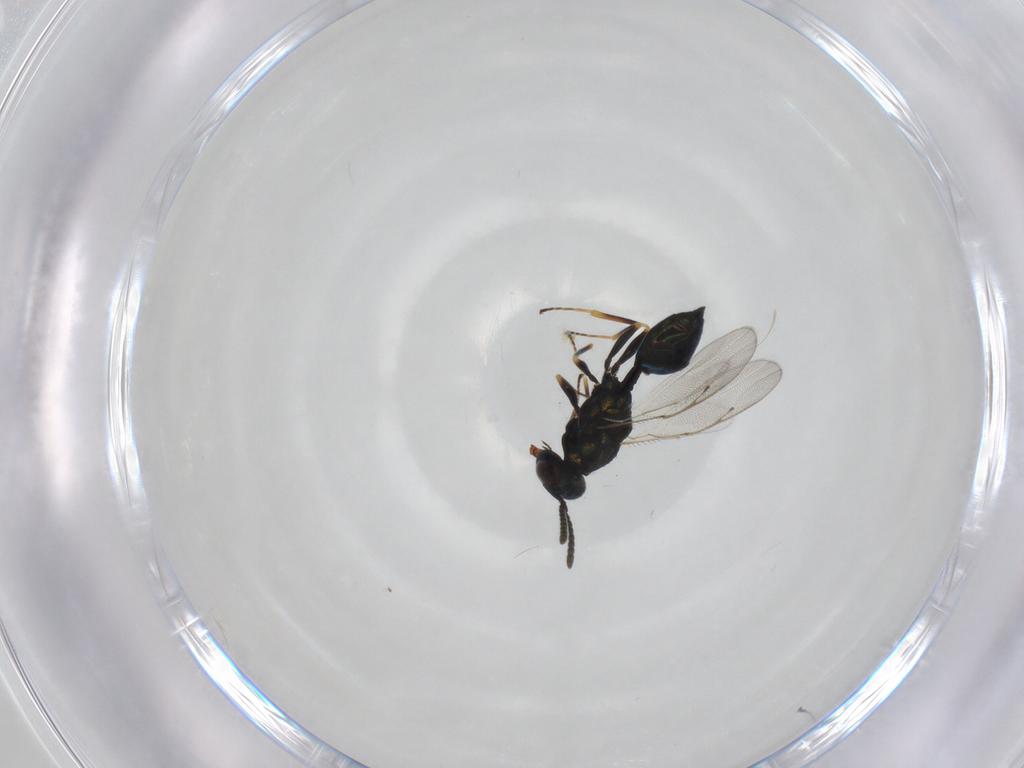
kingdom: Animalia
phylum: Arthropoda
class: Insecta
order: Hymenoptera
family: Pteromalidae
